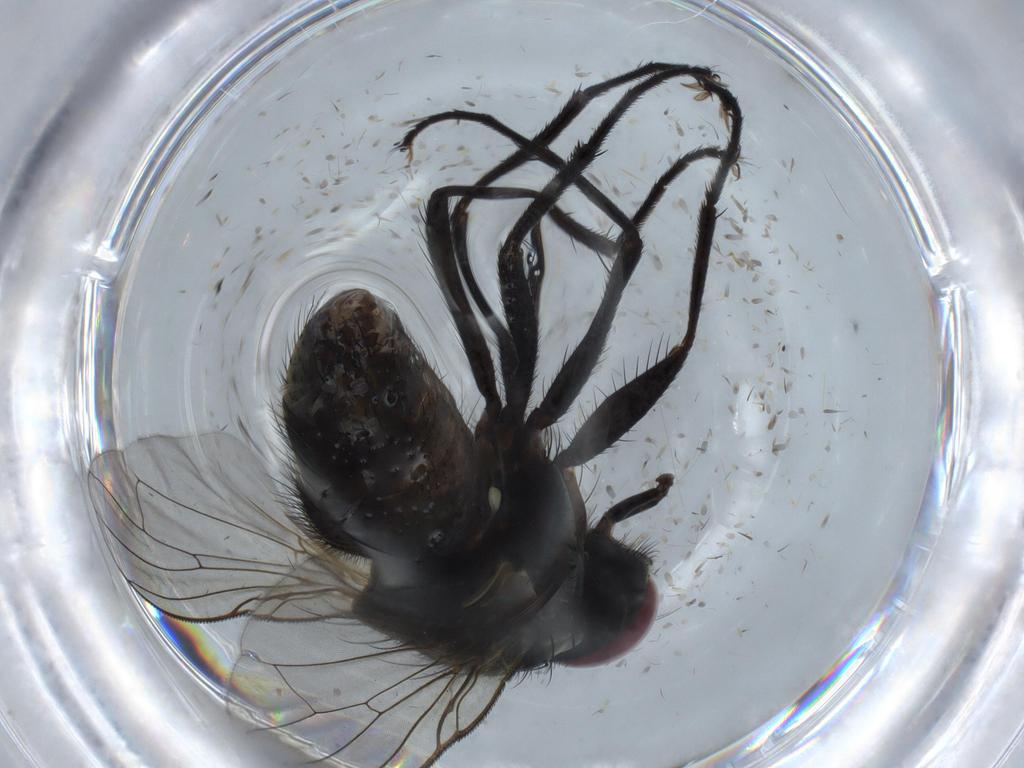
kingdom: Animalia
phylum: Arthropoda
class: Insecta
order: Diptera
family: Muscidae
